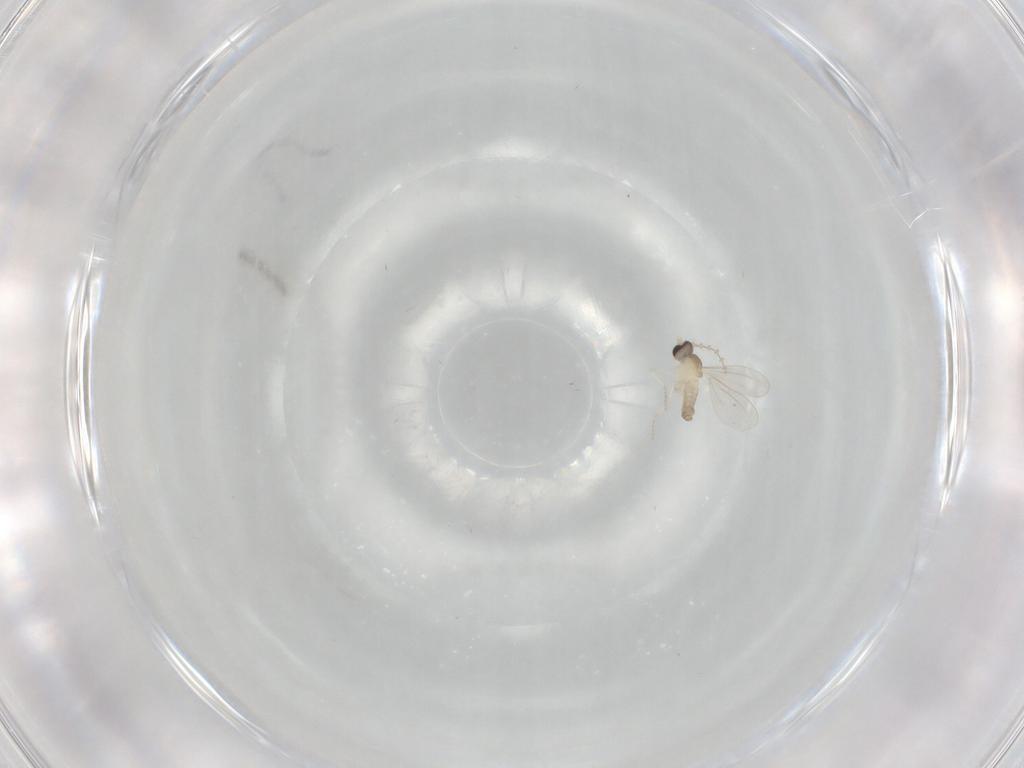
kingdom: Animalia
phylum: Arthropoda
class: Insecta
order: Diptera
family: Cecidomyiidae
